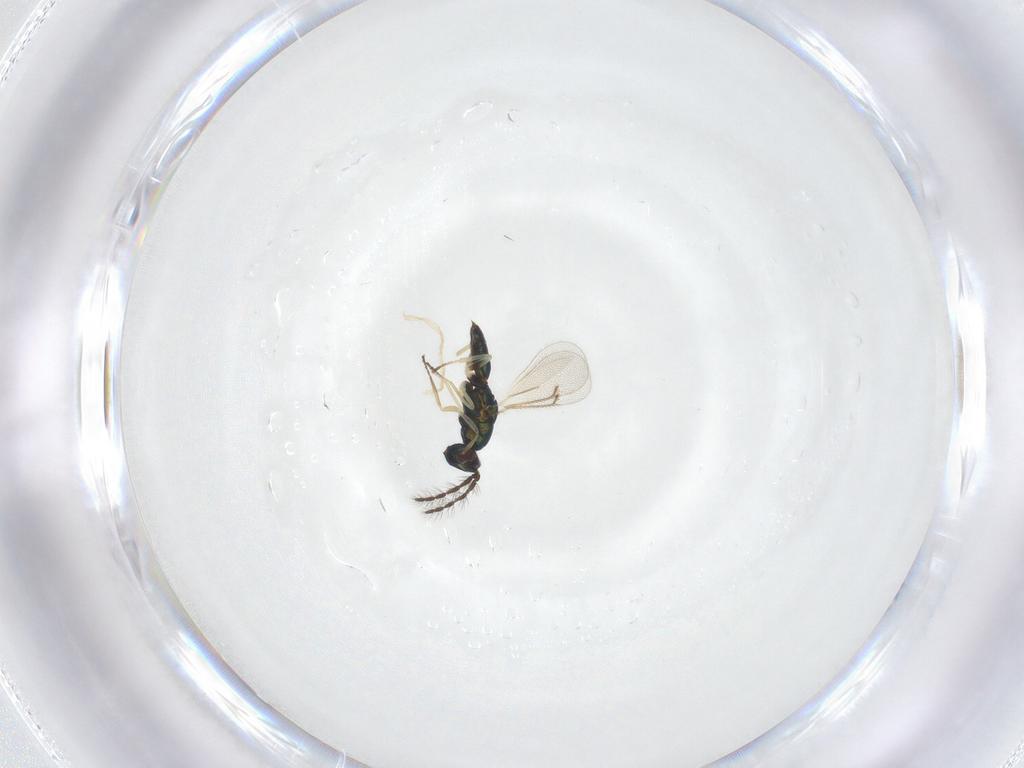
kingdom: Animalia
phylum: Arthropoda
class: Insecta
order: Hymenoptera
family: Eulophidae
